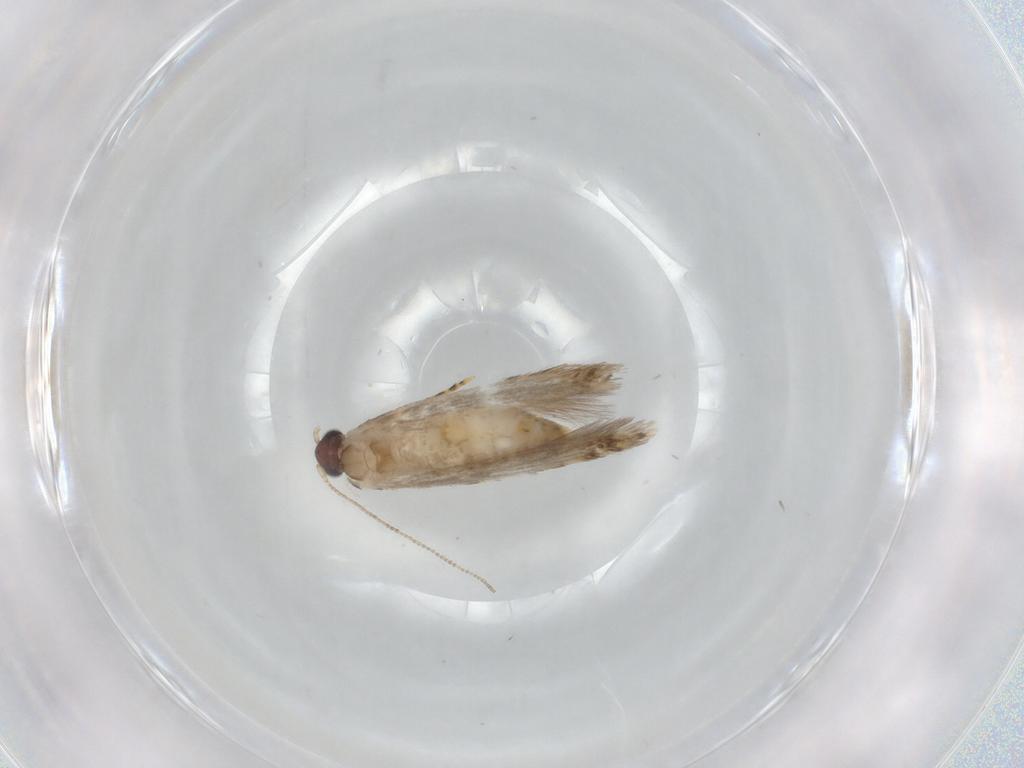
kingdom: Animalia
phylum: Arthropoda
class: Insecta
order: Lepidoptera
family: Tineidae
